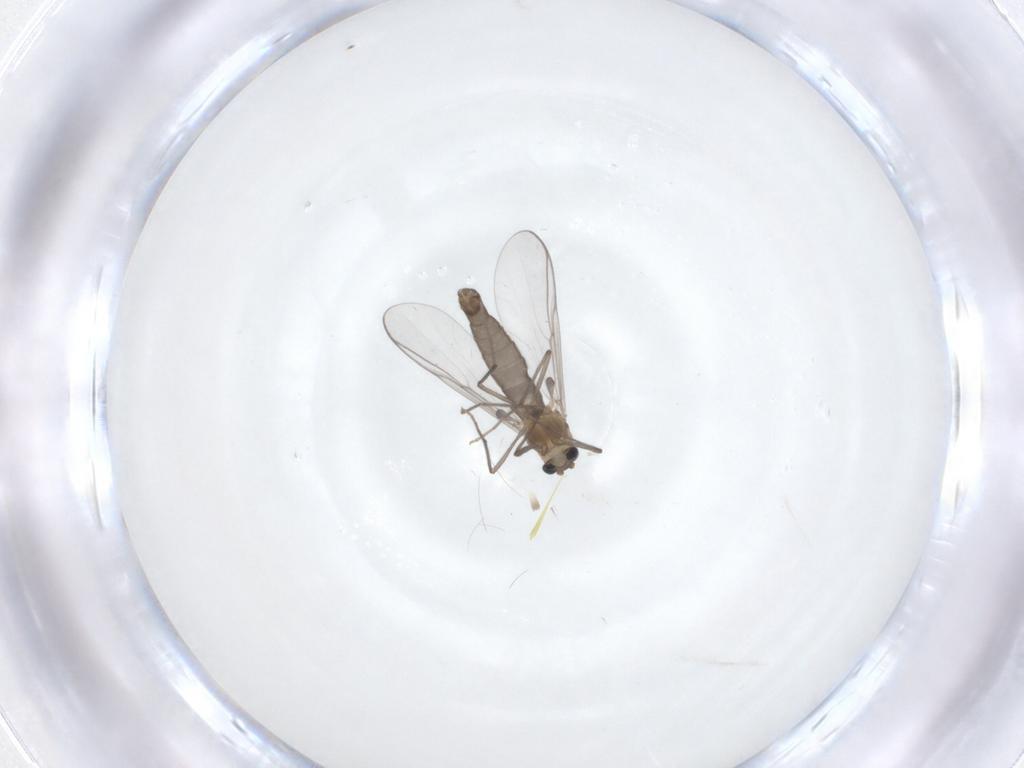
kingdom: Animalia
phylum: Arthropoda
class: Insecta
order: Diptera
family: Chironomidae
